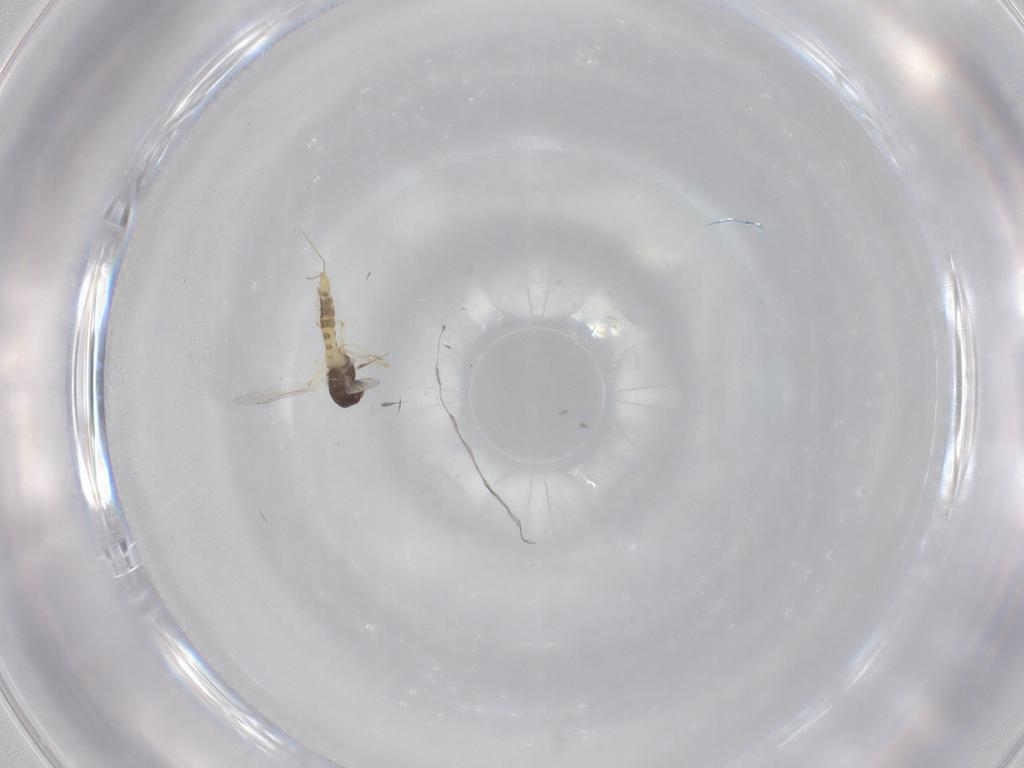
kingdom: Animalia
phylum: Arthropoda
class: Insecta
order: Diptera
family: Chironomidae
